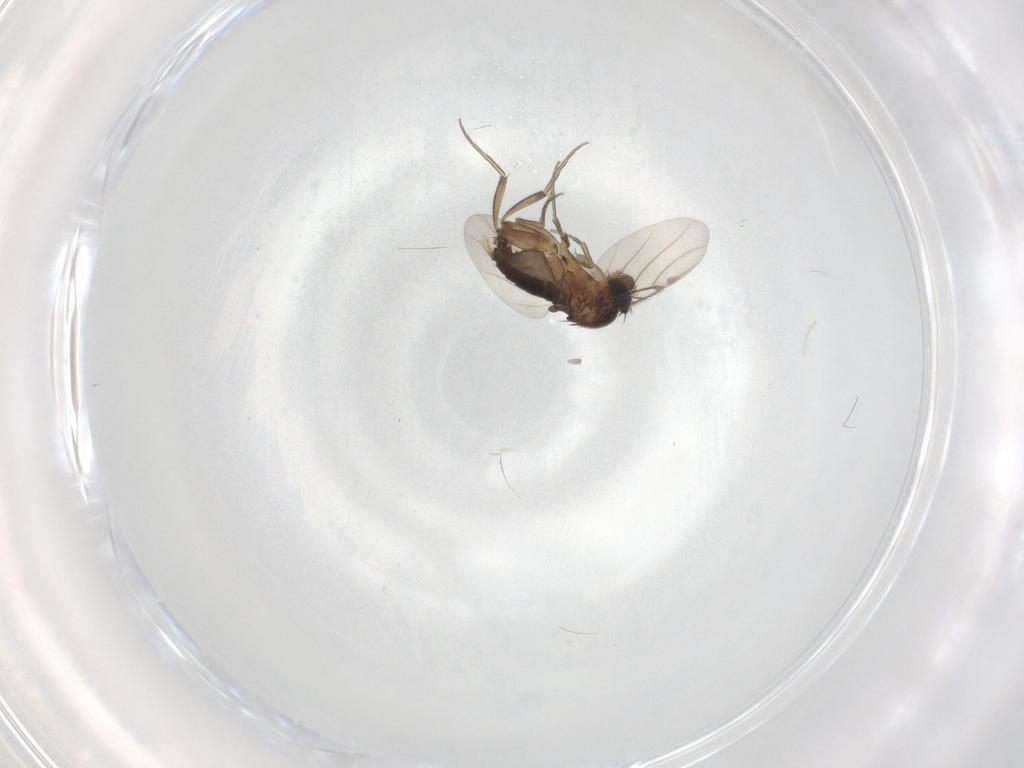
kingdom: Animalia
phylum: Arthropoda
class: Insecta
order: Diptera
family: Phoridae
